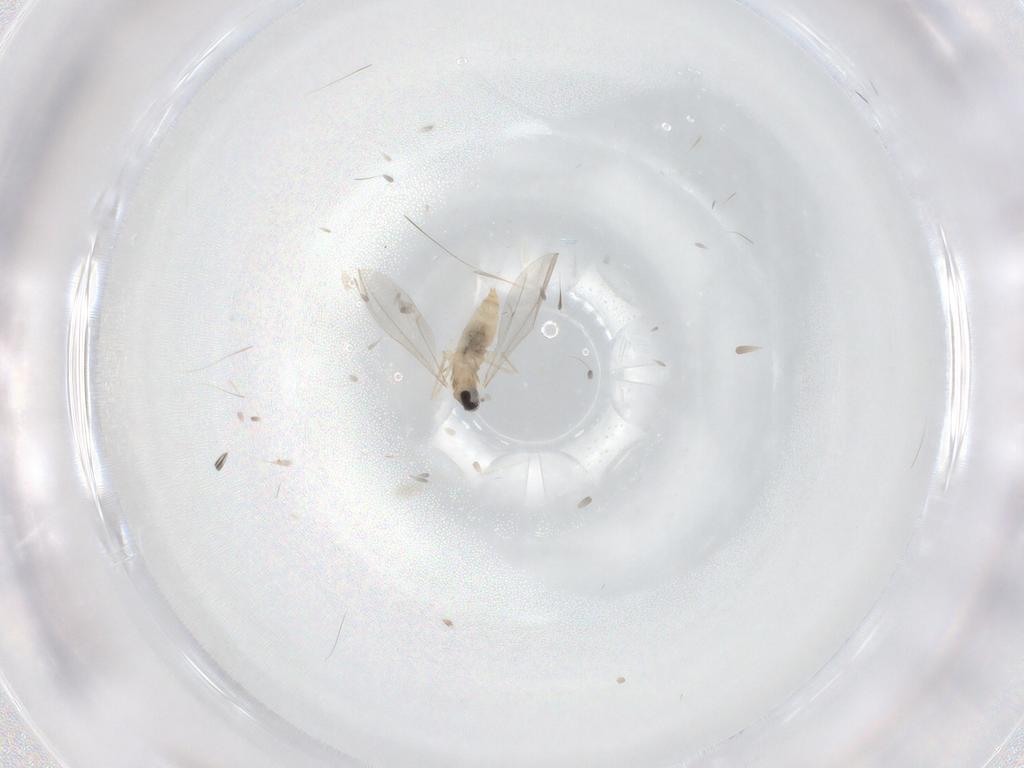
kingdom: Animalia
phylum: Arthropoda
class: Insecta
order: Diptera
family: Cecidomyiidae
